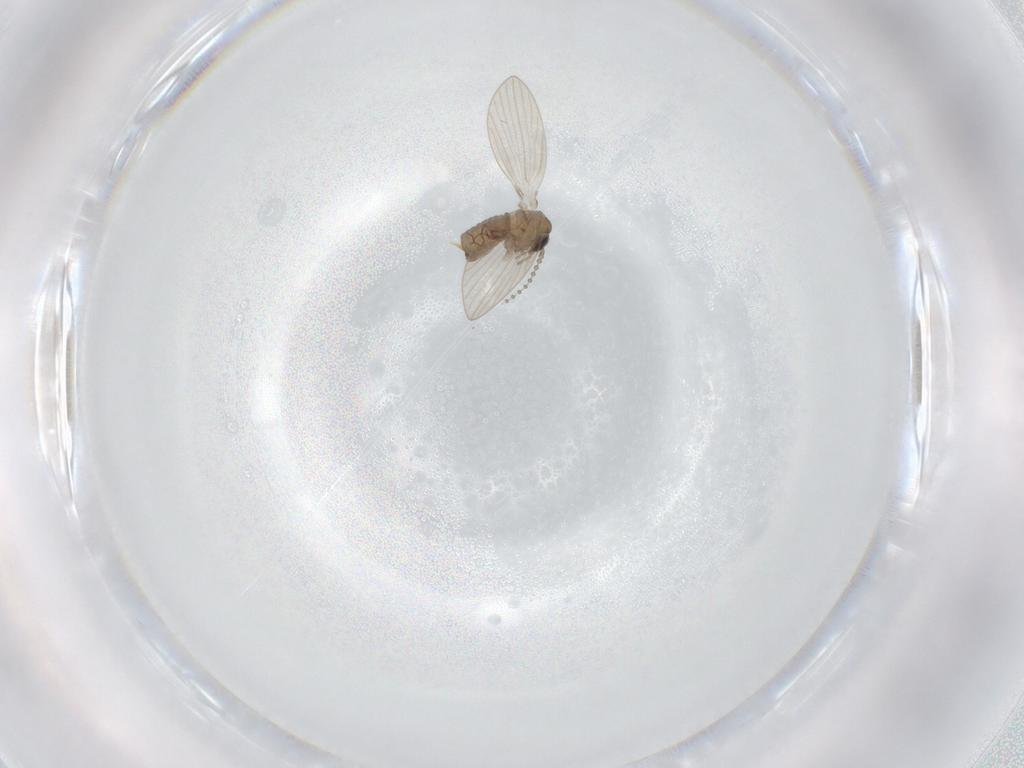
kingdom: Animalia
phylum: Arthropoda
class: Insecta
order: Diptera
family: Psychodidae
